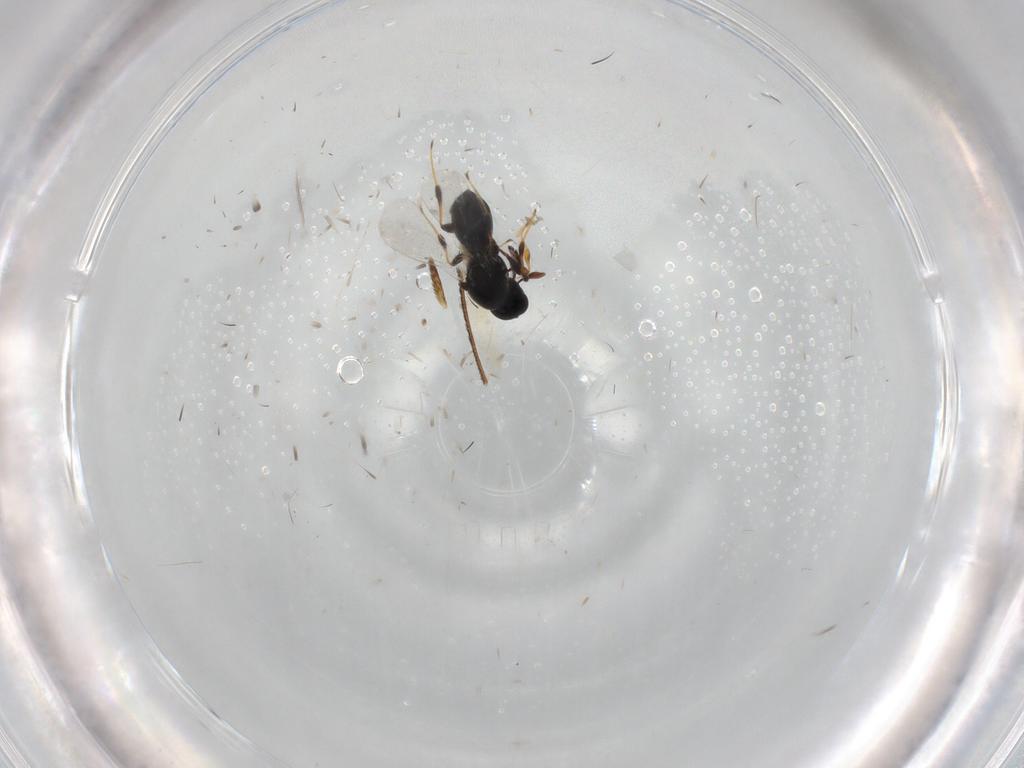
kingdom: Animalia
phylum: Arthropoda
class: Insecta
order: Hymenoptera
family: Platygastridae
